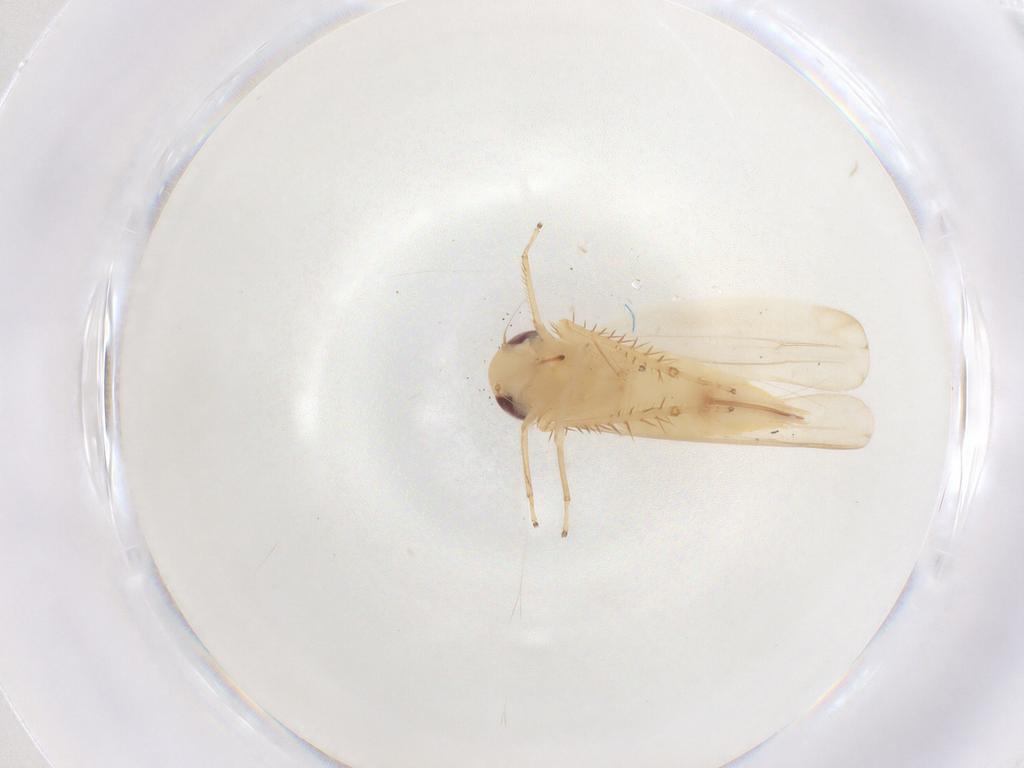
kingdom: Animalia
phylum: Arthropoda
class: Insecta
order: Hemiptera
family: Cicadellidae
